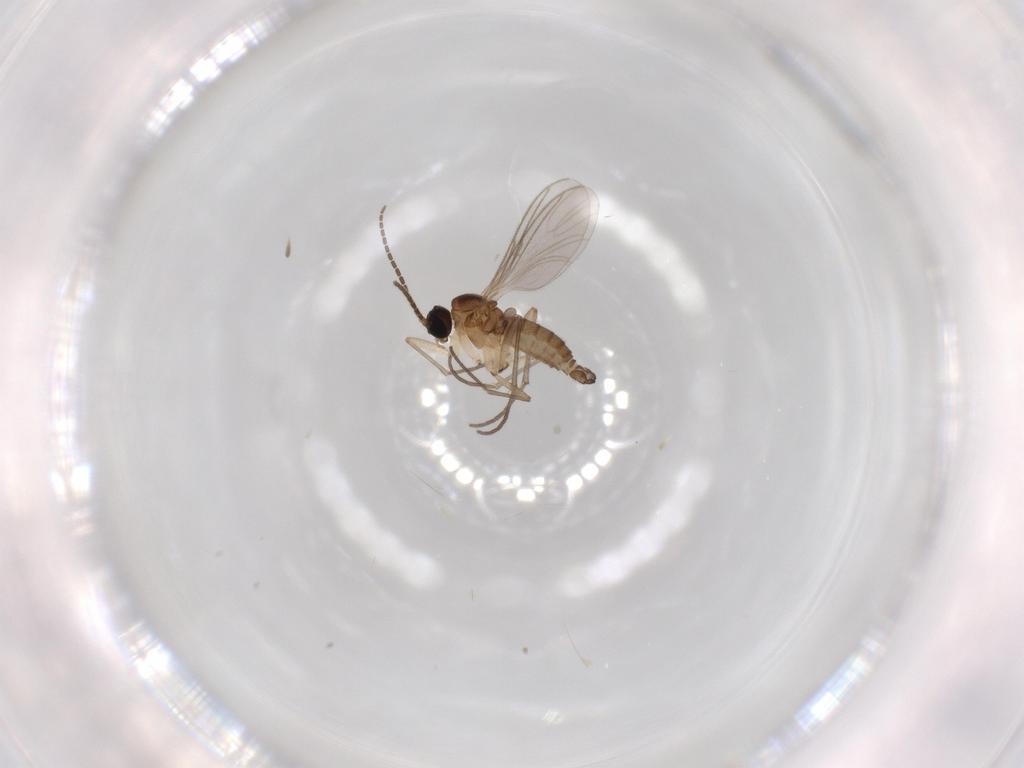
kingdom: Animalia
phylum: Arthropoda
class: Insecta
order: Diptera
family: Sciaridae
